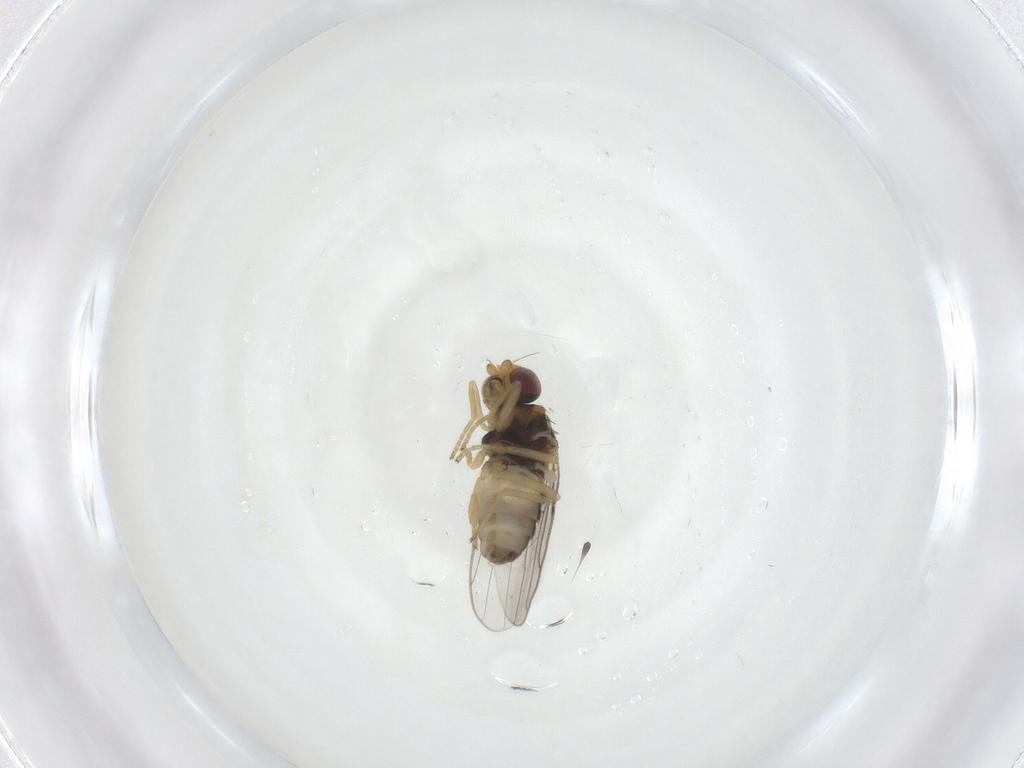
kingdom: Animalia
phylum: Arthropoda
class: Insecta
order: Diptera
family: Chloropidae
